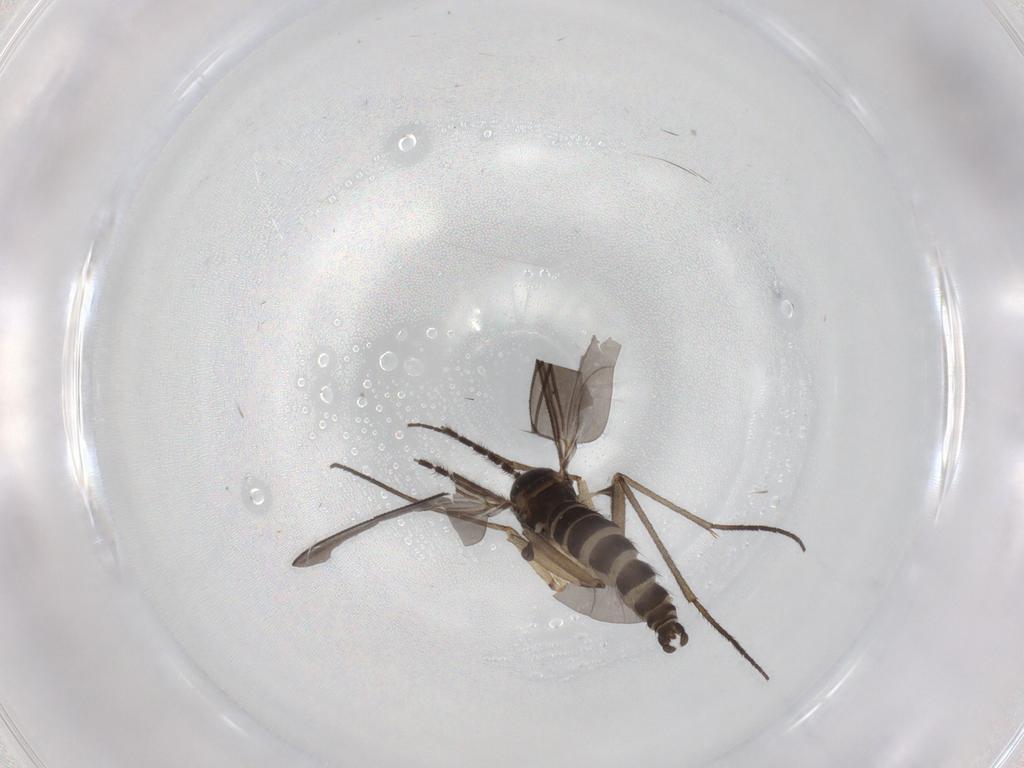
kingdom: Animalia
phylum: Arthropoda
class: Insecta
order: Diptera
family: Sciaridae
